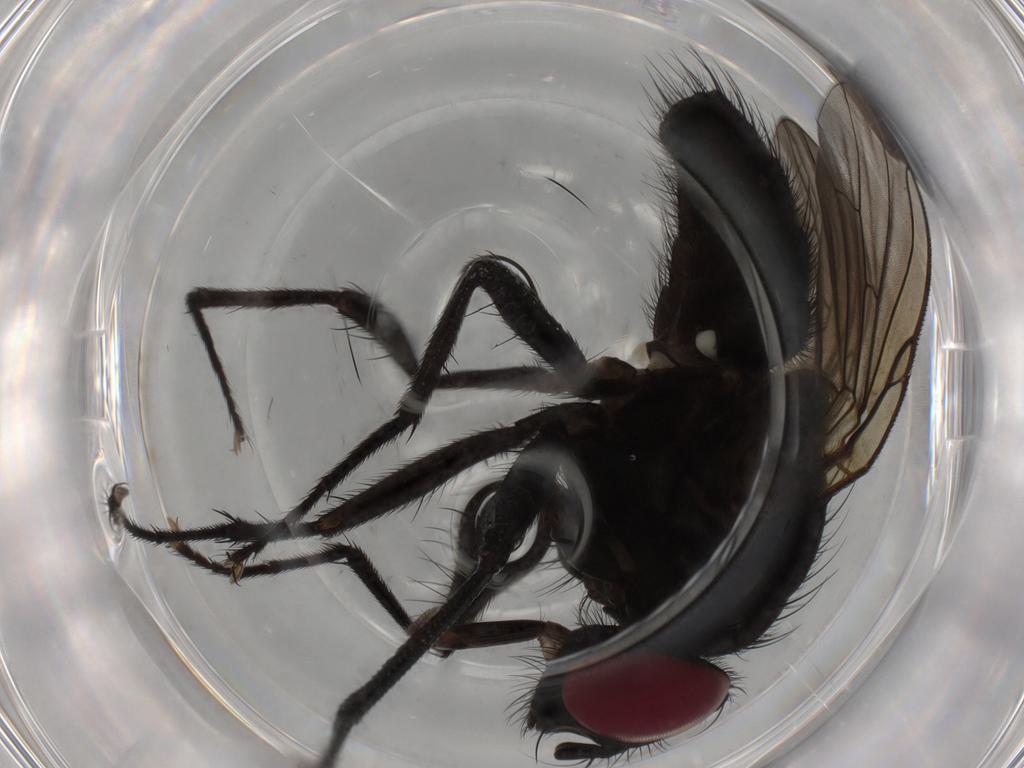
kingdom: Animalia
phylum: Arthropoda
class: Insecta
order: Diptera
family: Muscidae
